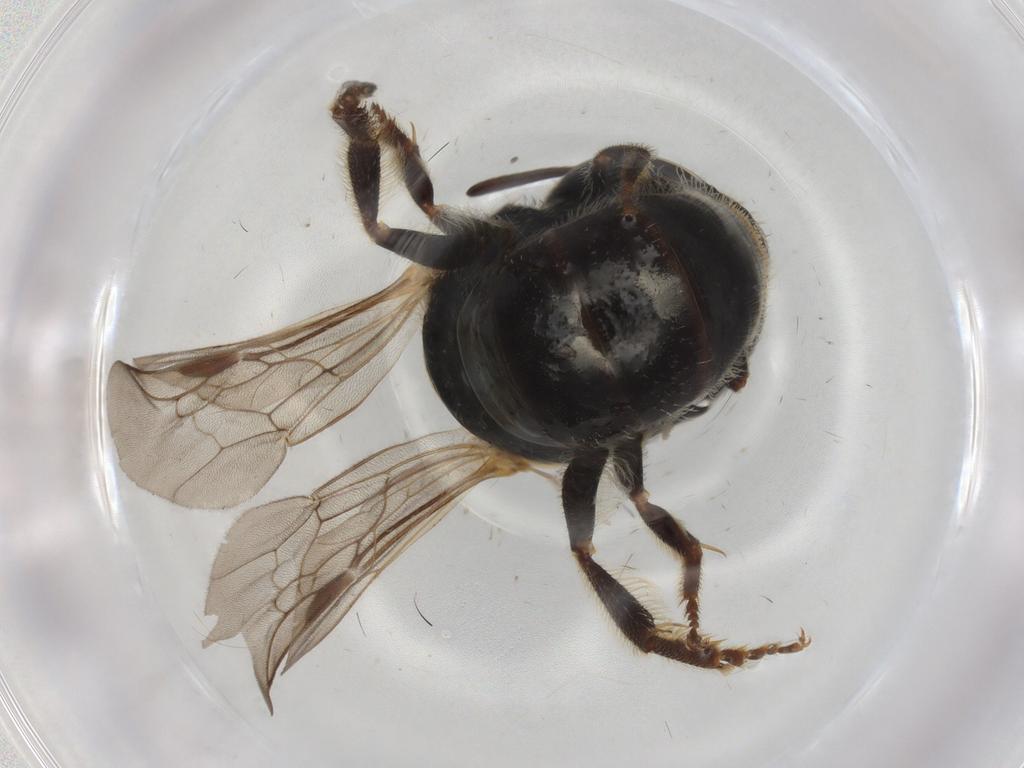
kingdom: Animalia
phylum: Arthropoda
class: Insecta
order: Hymenoptera
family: Halictidae
